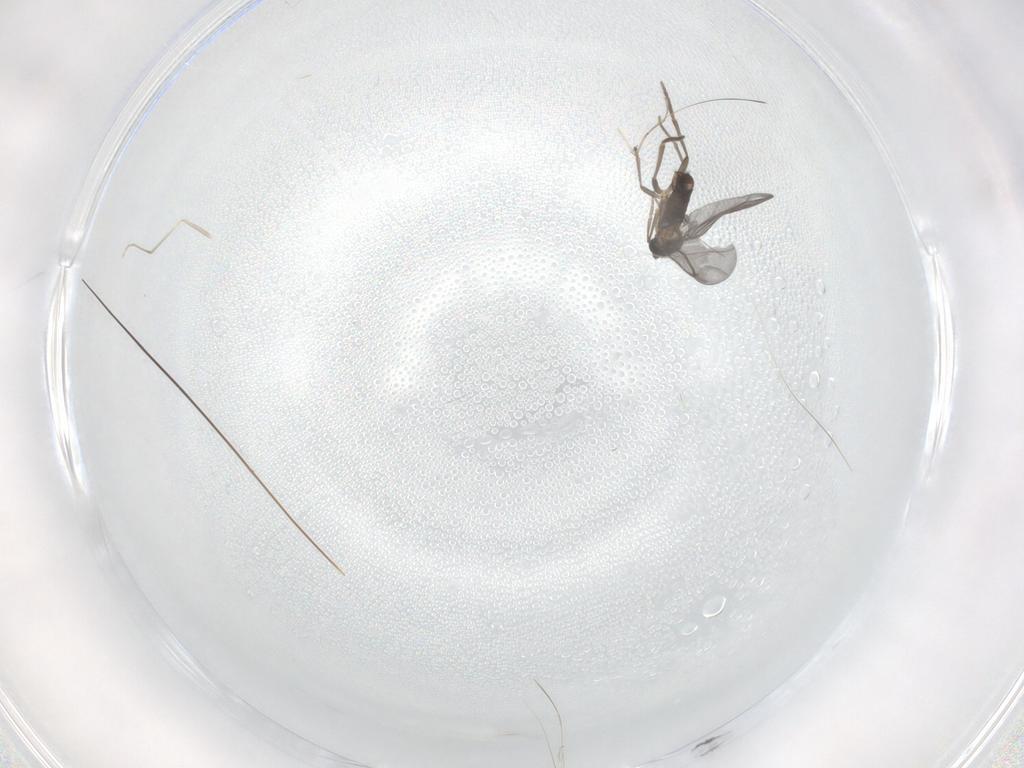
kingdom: Animalia
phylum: Arthropoda
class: Insecta
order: Diptera
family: Phoridae
